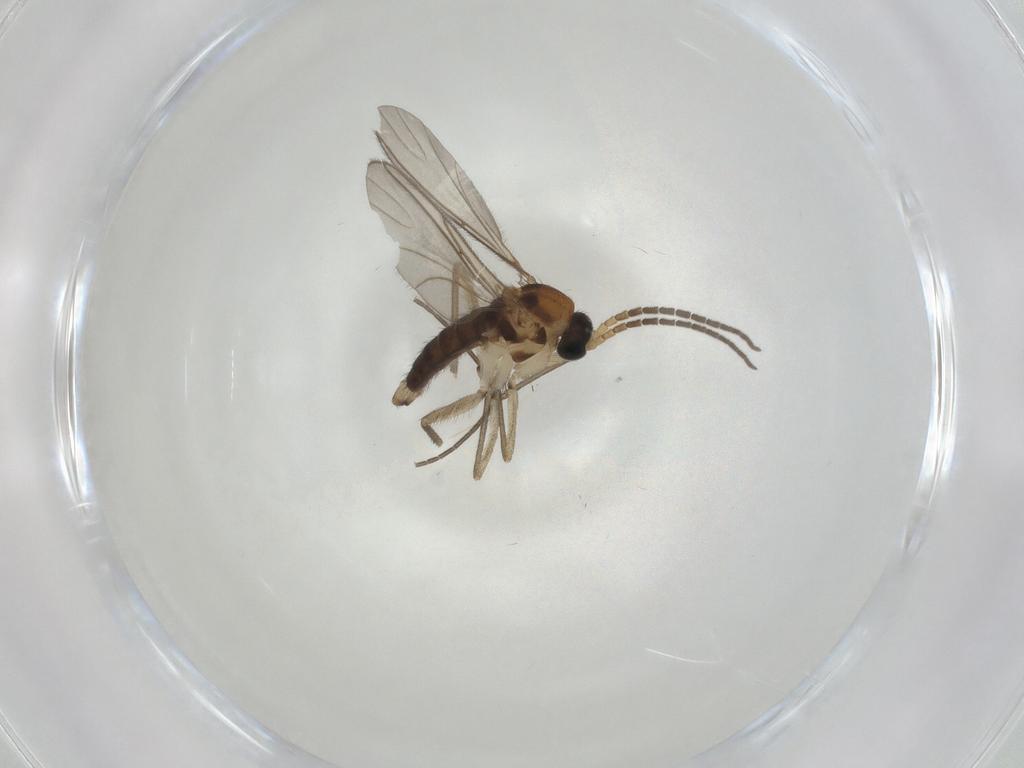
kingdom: Animalia
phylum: Arthropoda
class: Insecta
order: Diptera
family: Sciaridae
